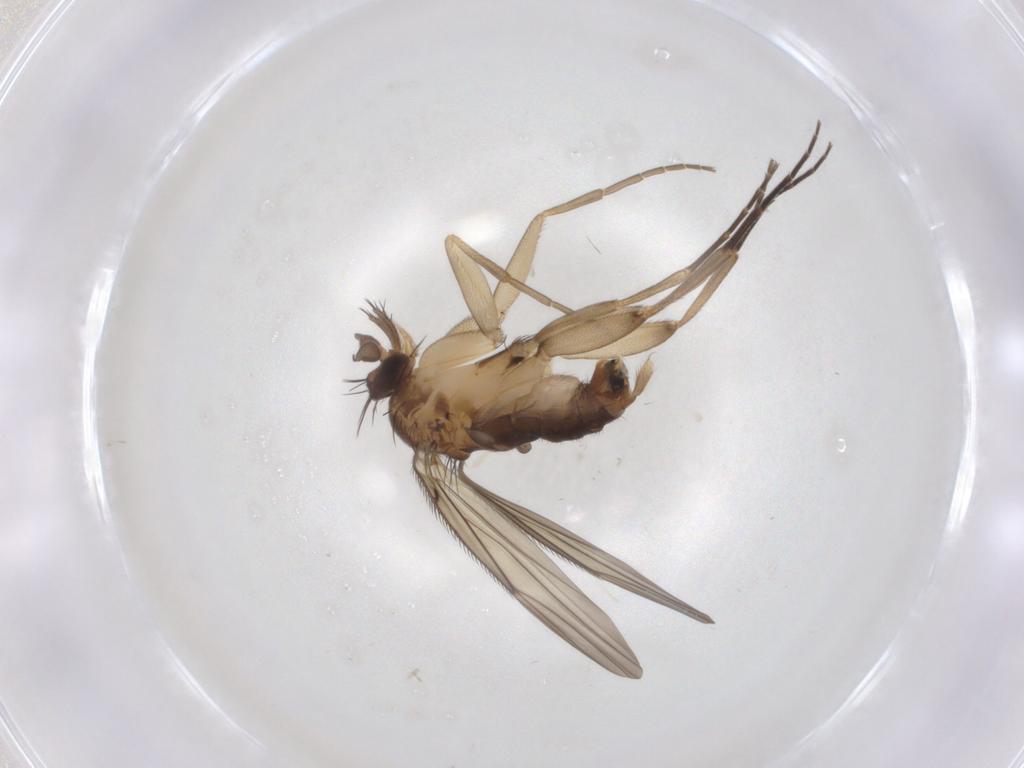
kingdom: Animalia
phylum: Arthropoda
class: Insecta
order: Diptera
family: Phoridae
